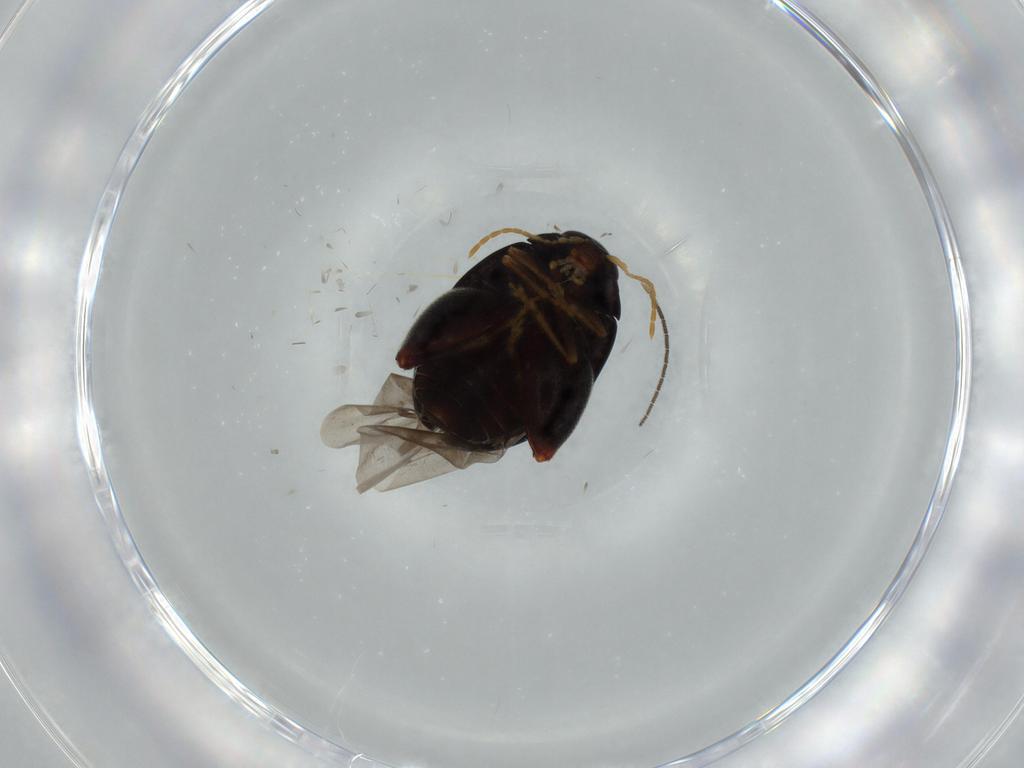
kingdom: Animalia
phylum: Arthropoda
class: Insecta
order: Coleoptera
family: Chrysomelidae
